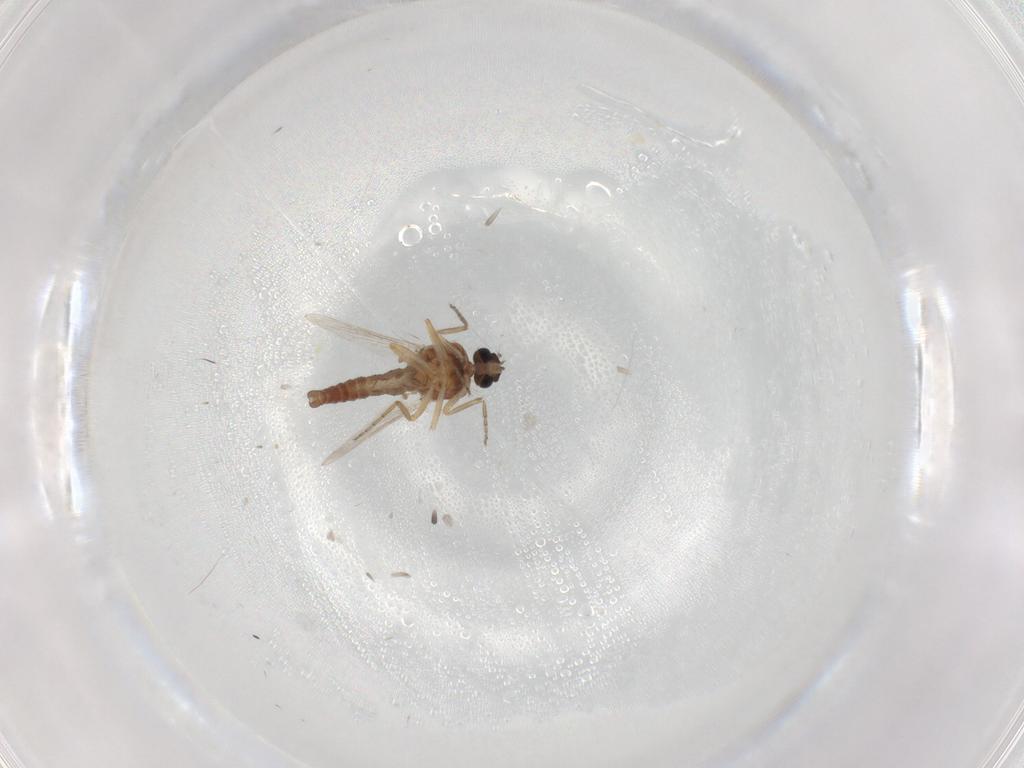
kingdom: Animalia
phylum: Arthropoda
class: Insecta
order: Diptera
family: Ceratopogonidae
